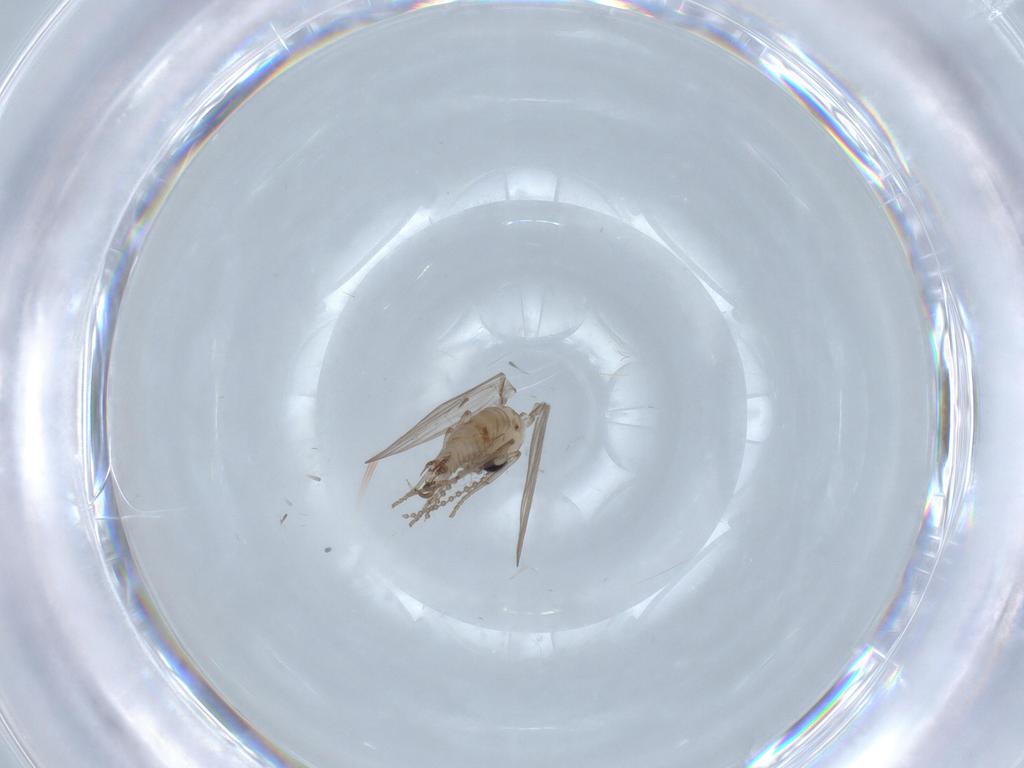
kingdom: Animalia
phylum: Arthropoda
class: Insecta
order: Diptera
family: Psychodidae
